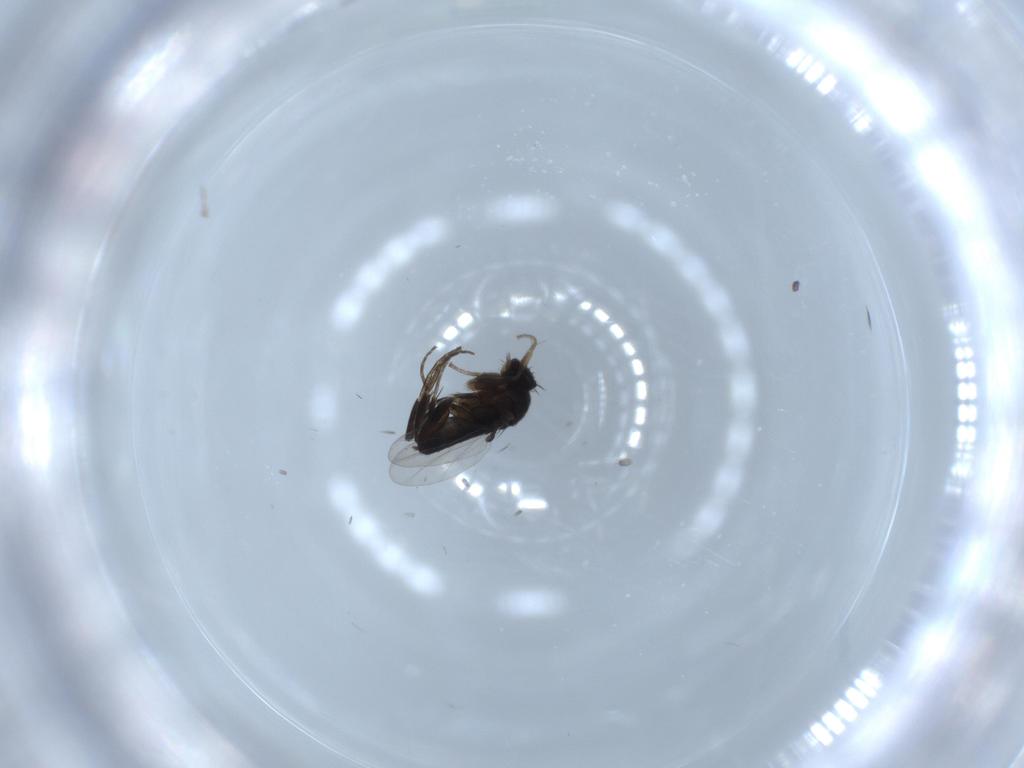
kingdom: Animalia
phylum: Arthropoda
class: Insecta
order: Diptera
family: Phoridae
